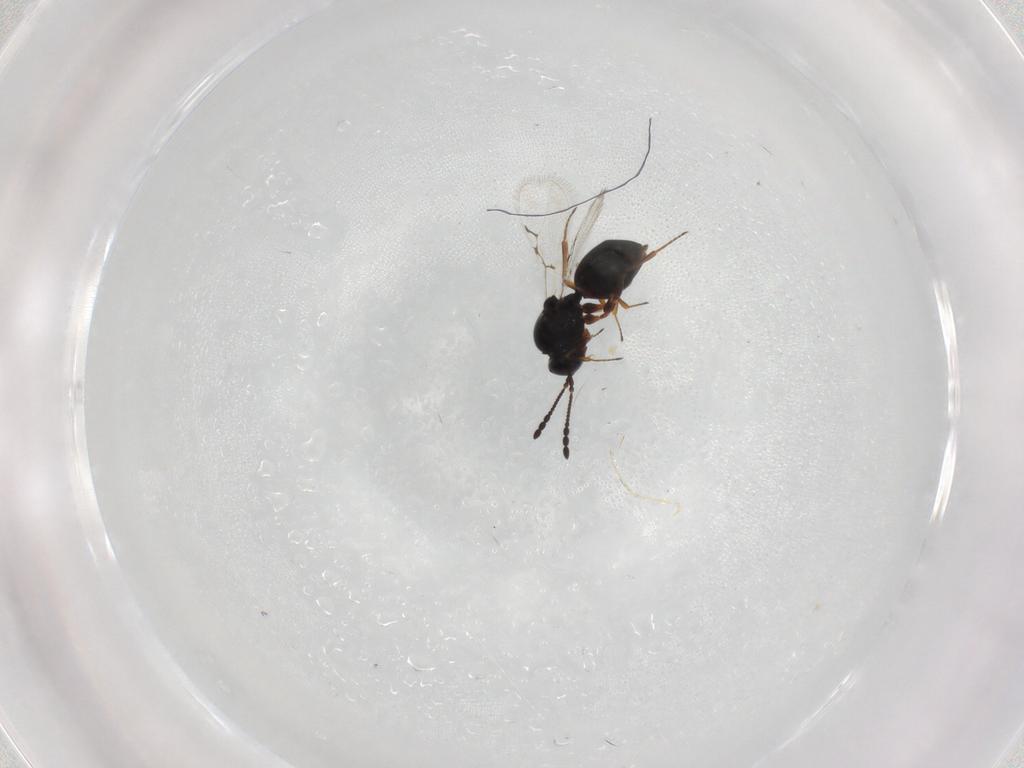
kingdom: Animalia
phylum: Arthropoda
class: Insecta
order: Hymenoptera
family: Figitidae
